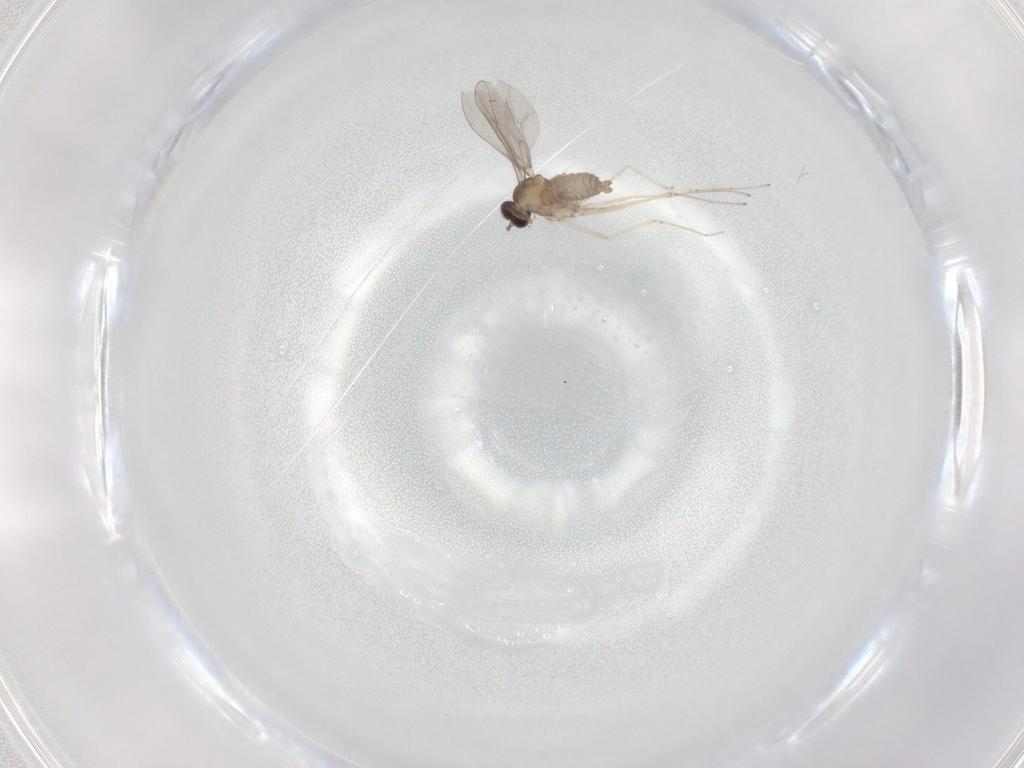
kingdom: Animalia
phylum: Arthropoda
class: Insecta
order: Diptera
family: Cecidomyiidae
